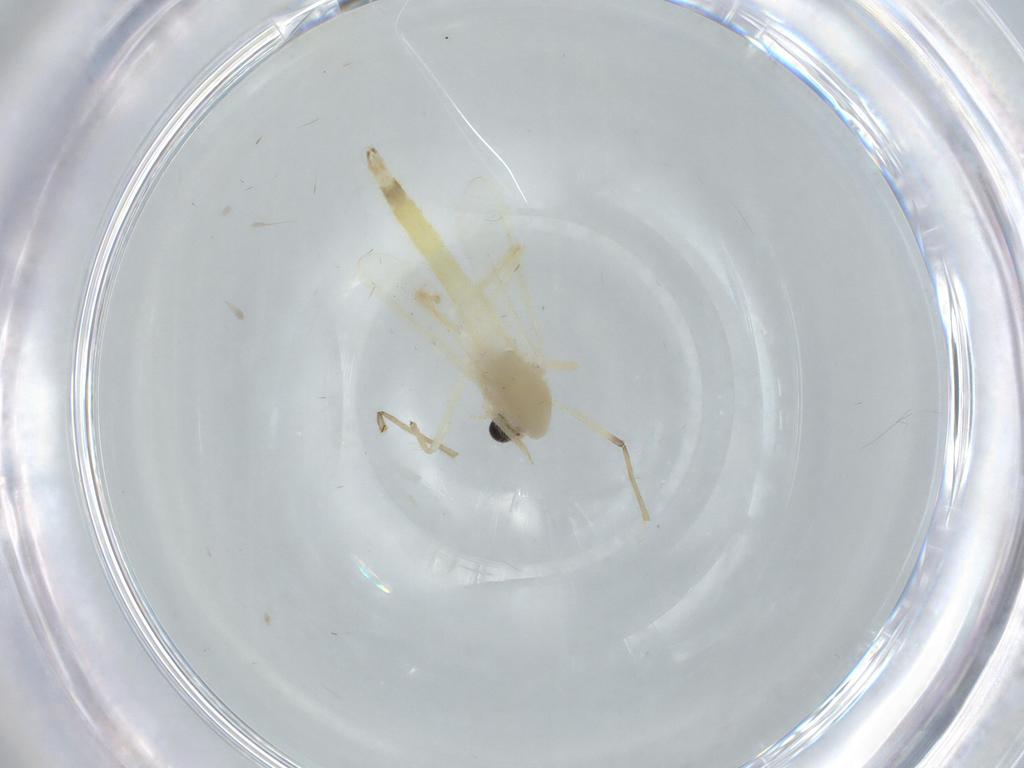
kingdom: Animalia
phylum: Arthropoda
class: Insecta
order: Diptera
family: Chironomidae
